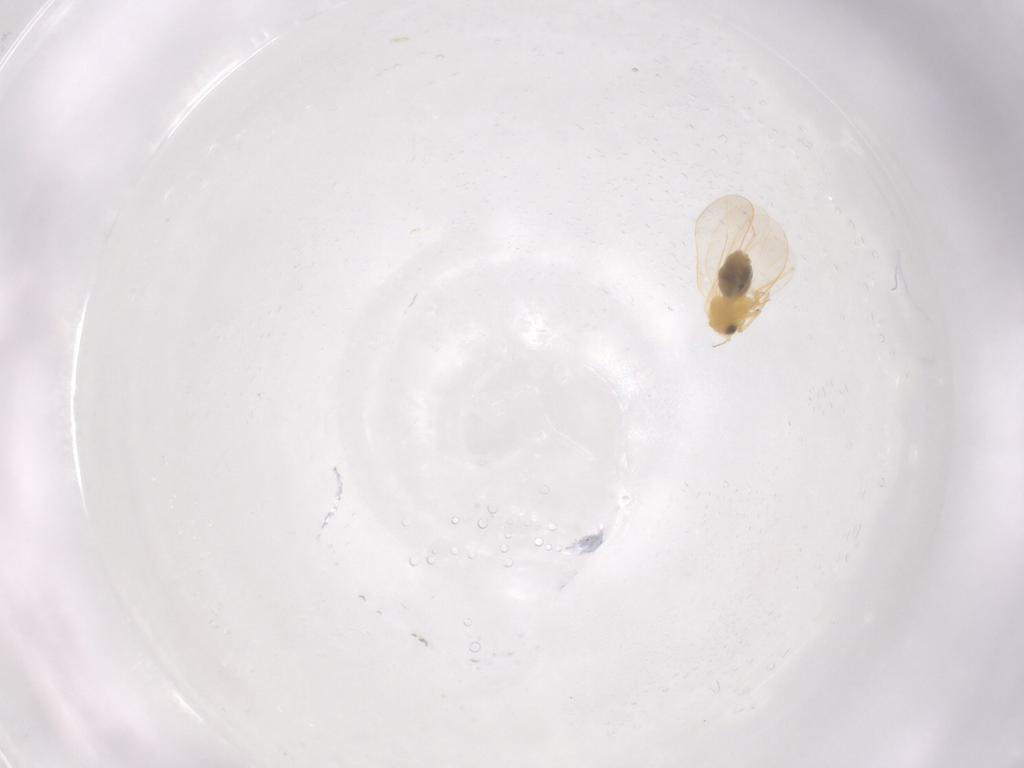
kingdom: Animalia
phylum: Arthropoda
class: Insecta
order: Diptera
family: Psychodidae
